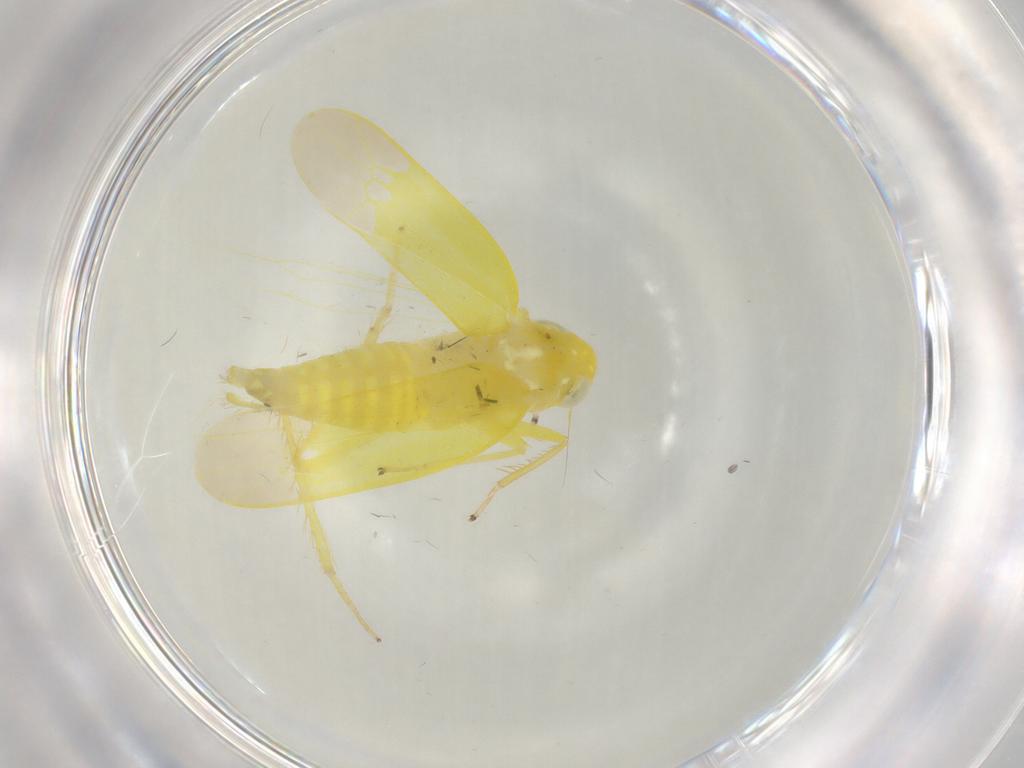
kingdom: Animalia
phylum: Arthropoda
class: Insecta
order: Hemiptera
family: Cicadellidae
